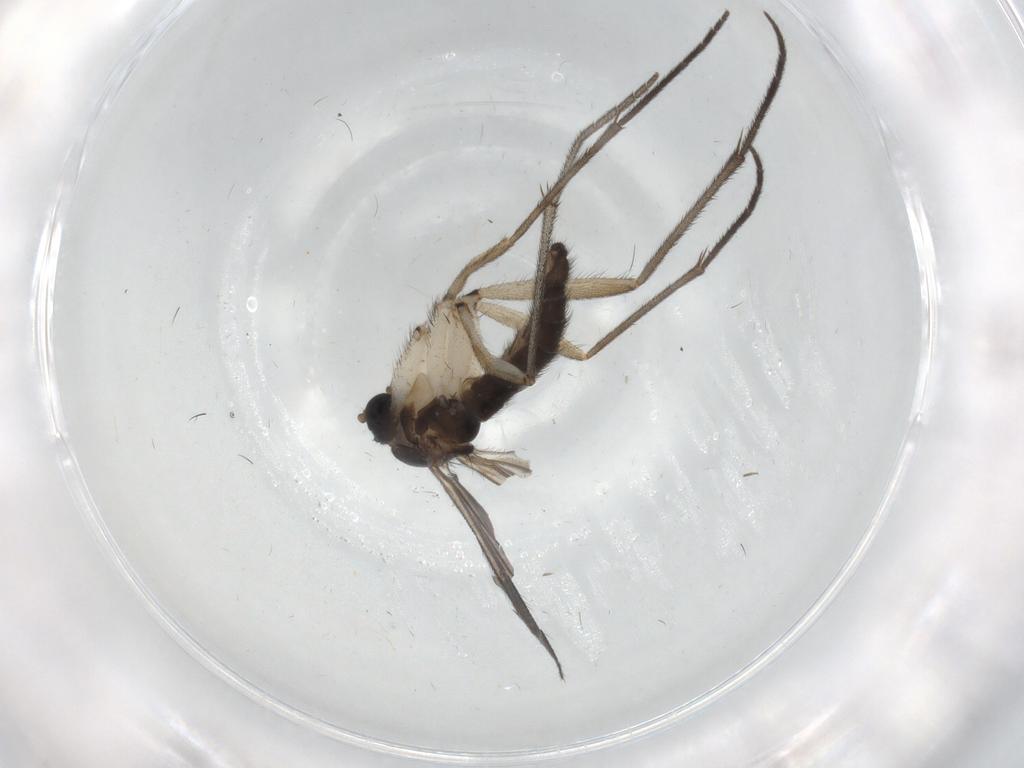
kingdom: Animalia
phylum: Arthropoda
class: Insecta
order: Diptera
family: Sciaridae
